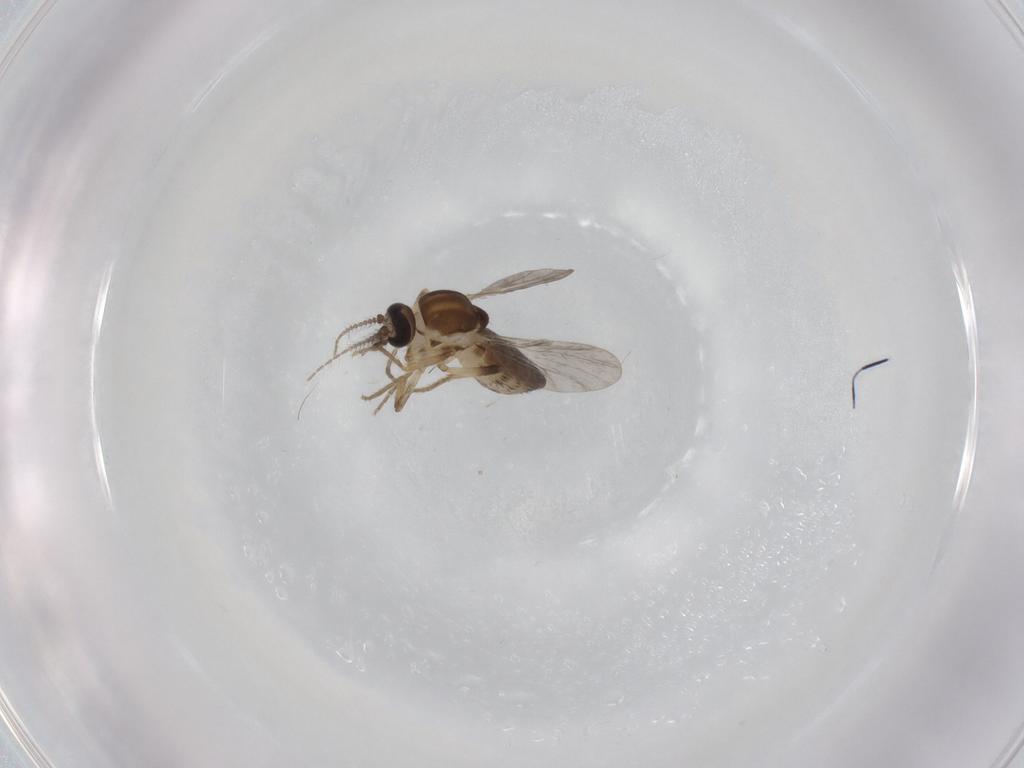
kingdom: Animalia
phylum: Arthropoda
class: Insecta
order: Diptera
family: Ceratopogonidae
